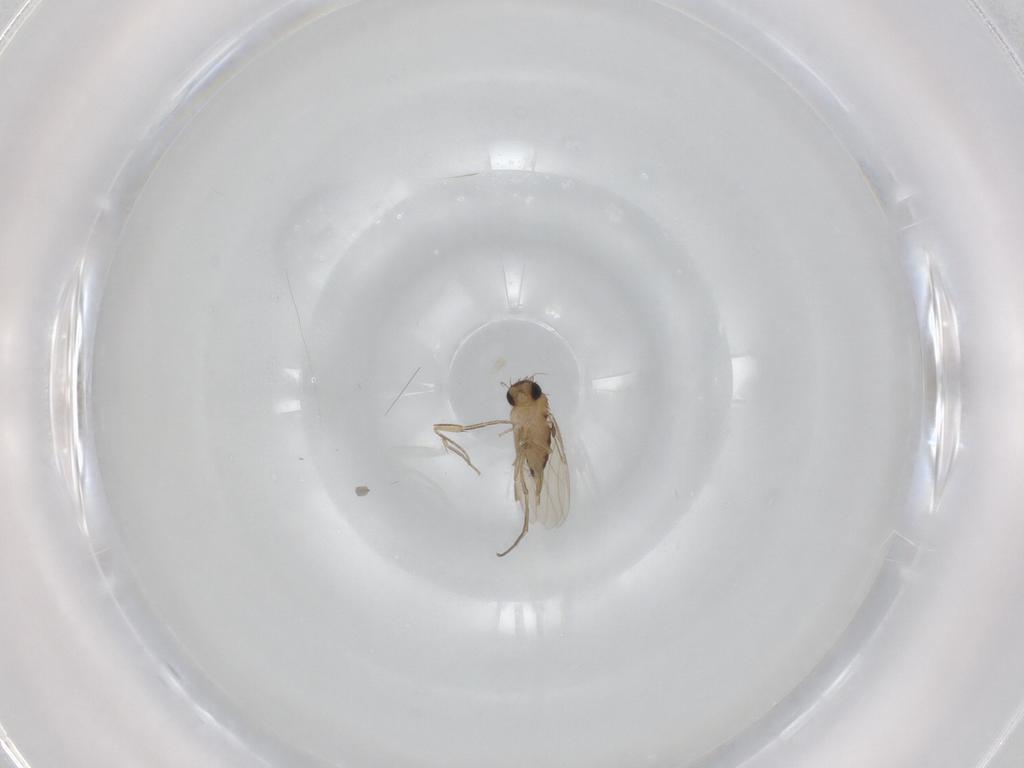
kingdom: Animalia
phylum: Arthropoda
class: Insecta
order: Diptera
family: Phoridae
